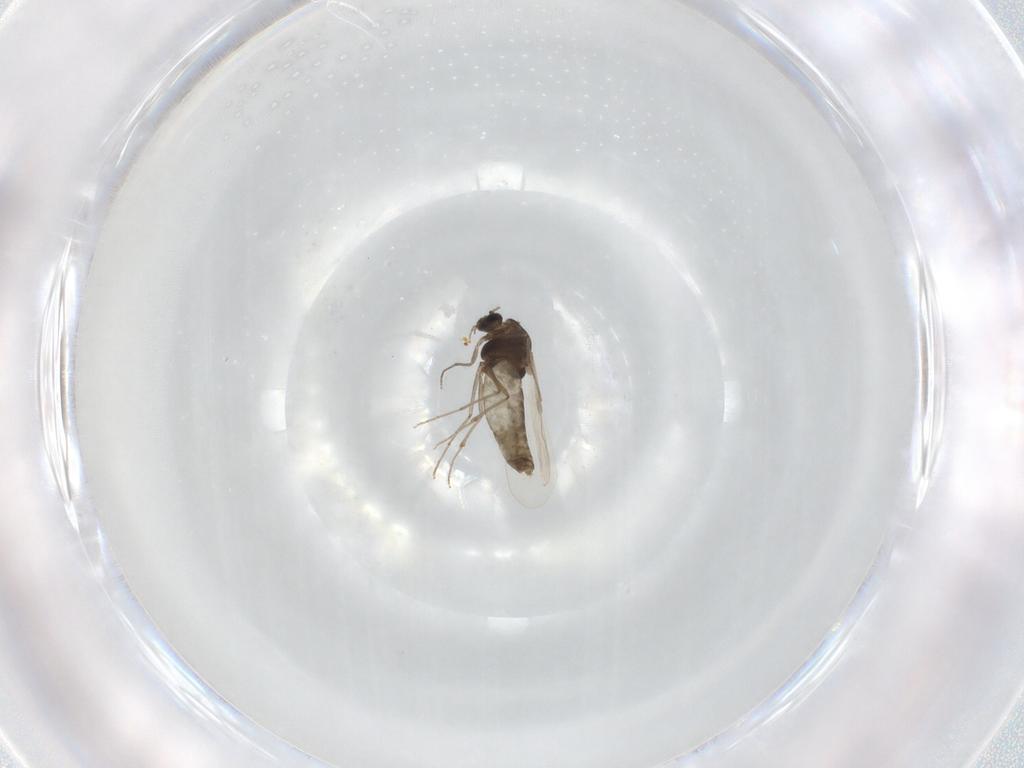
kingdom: Animalia
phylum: Arthropoda
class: Insecta
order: Diptera
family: Chironomidae
